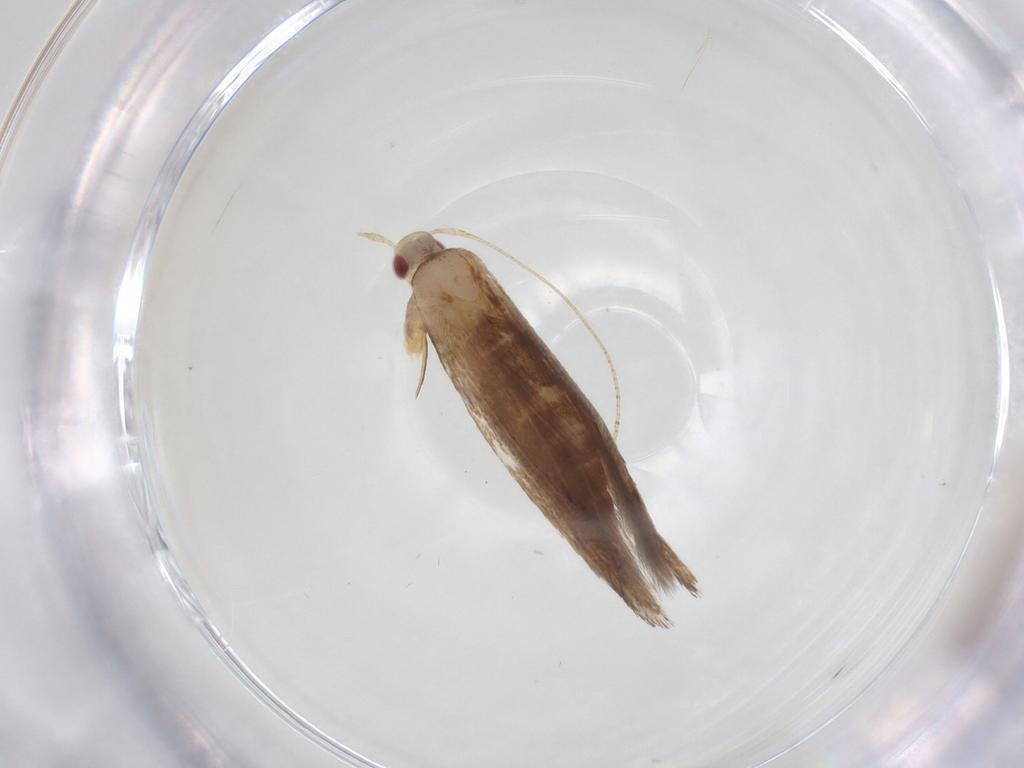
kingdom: Animalia
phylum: Arthropoda
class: Insecta
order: Lepidoptera
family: Cosmopterigidae
